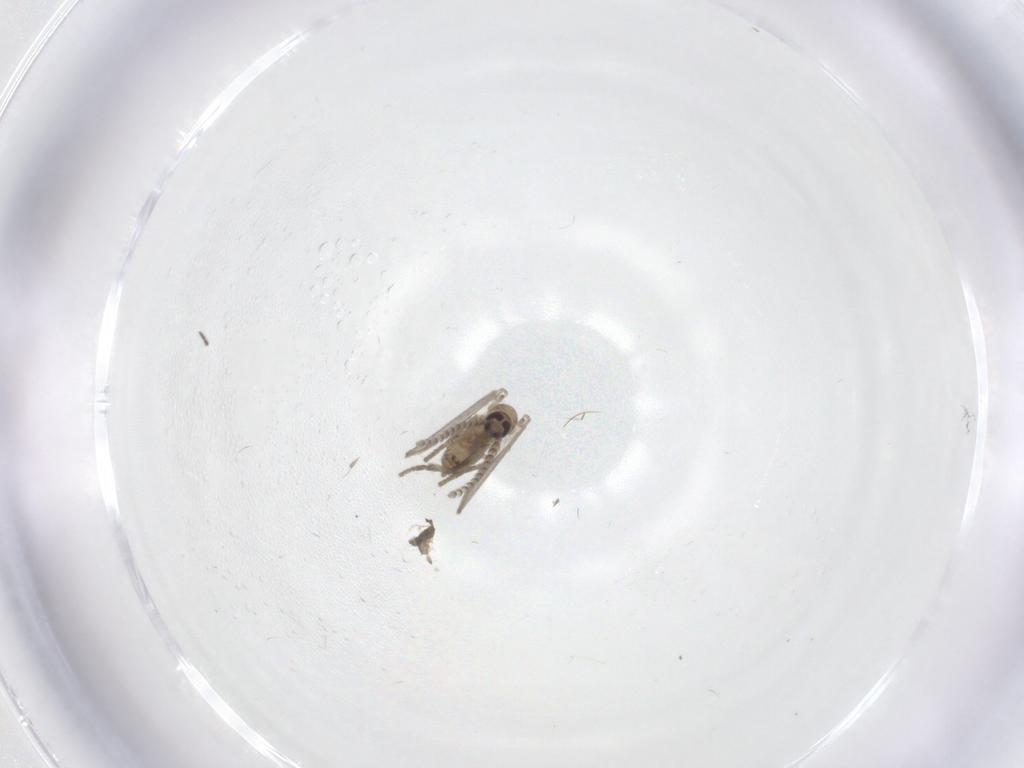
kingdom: Animalia
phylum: Arthropoda
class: Insecta
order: Diptera
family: Psychodidae
